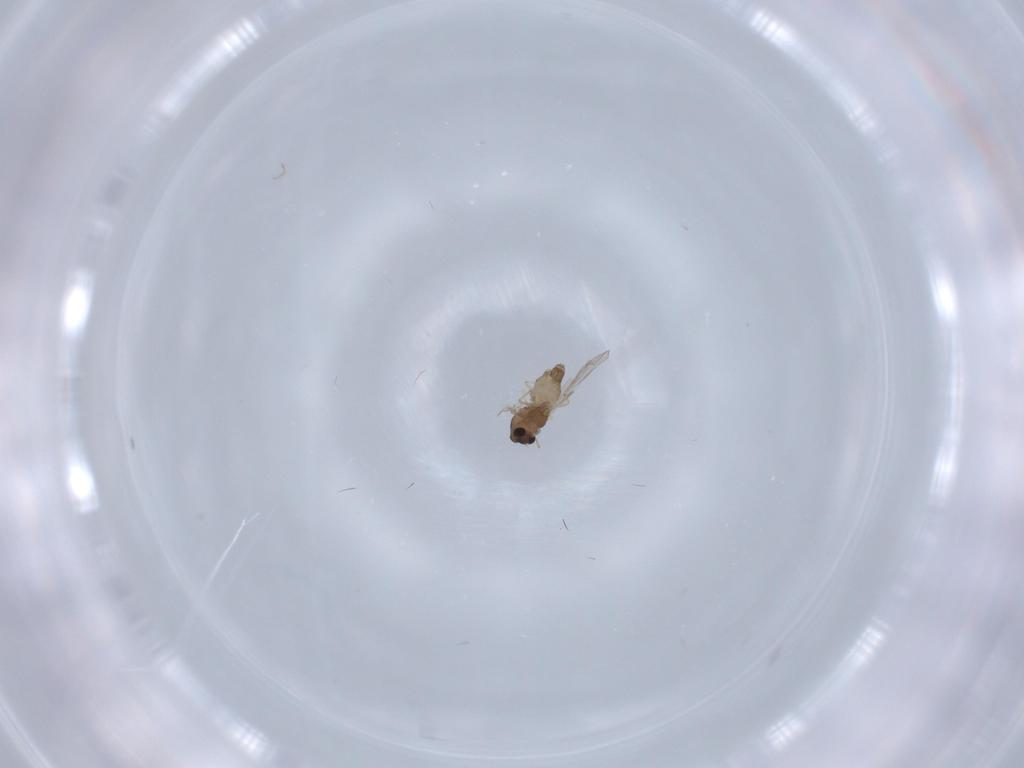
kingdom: Animalia
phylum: Arthropoda
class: Insecta
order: Diptera
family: Chironomidae
